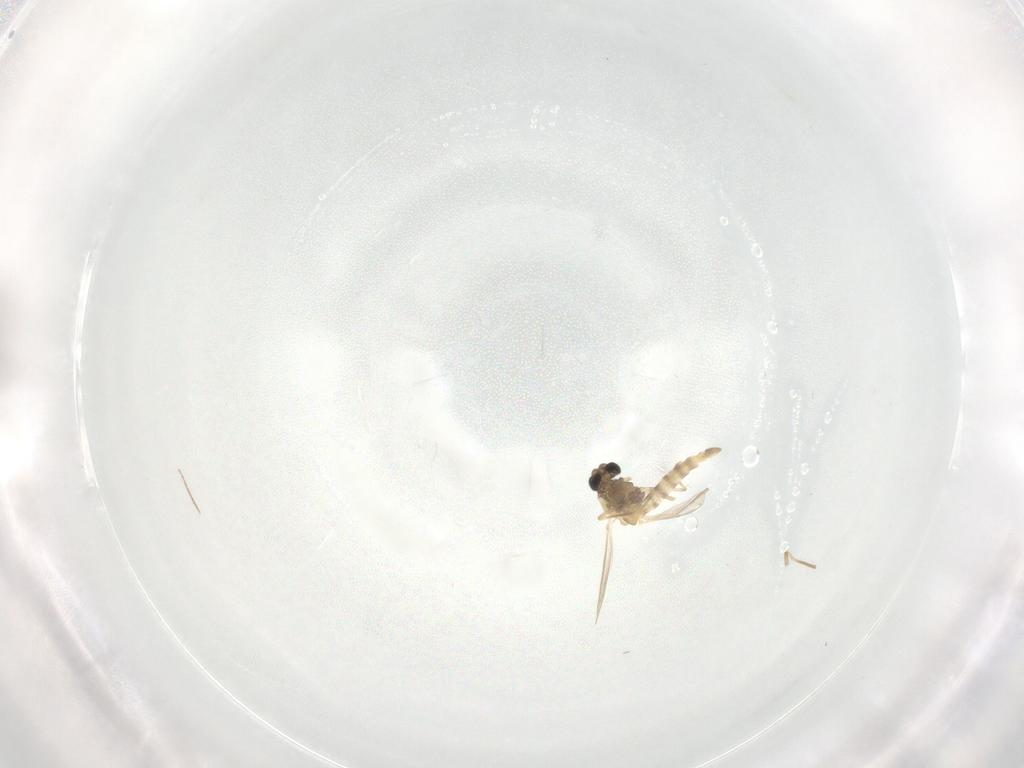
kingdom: Animalia
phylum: Arthropoda
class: Insecta
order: Diptera
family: Chironomidae
